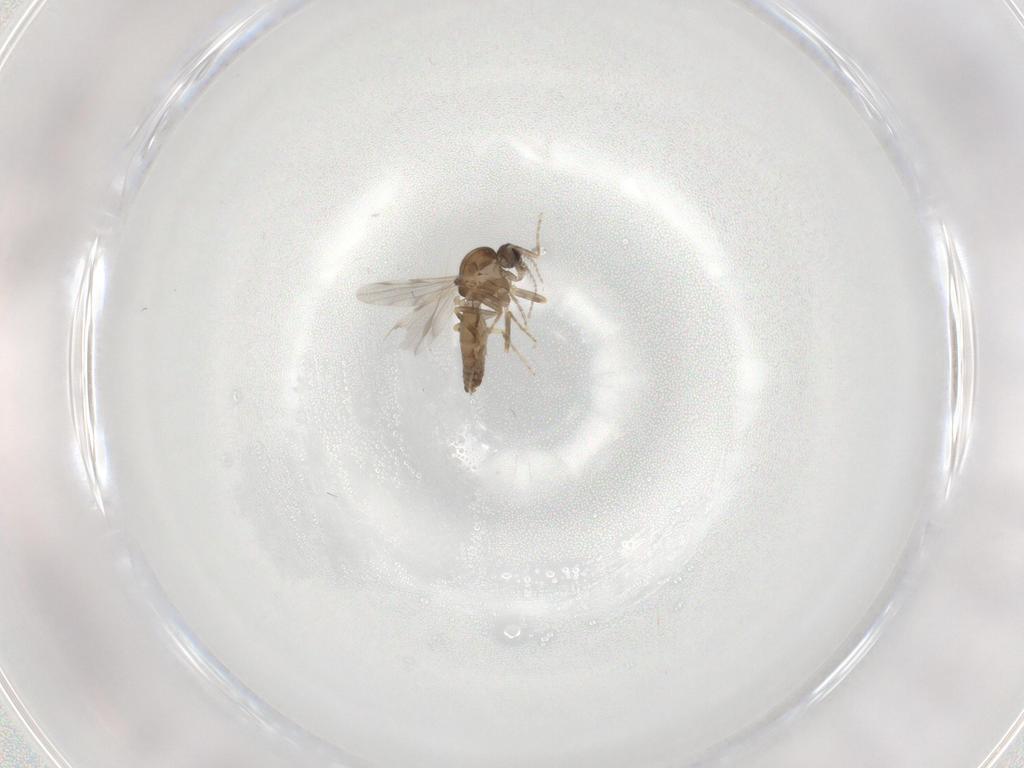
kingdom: Animalia
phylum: Arthropoda
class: Insecta
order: Diptera
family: Ceratopogonidae
